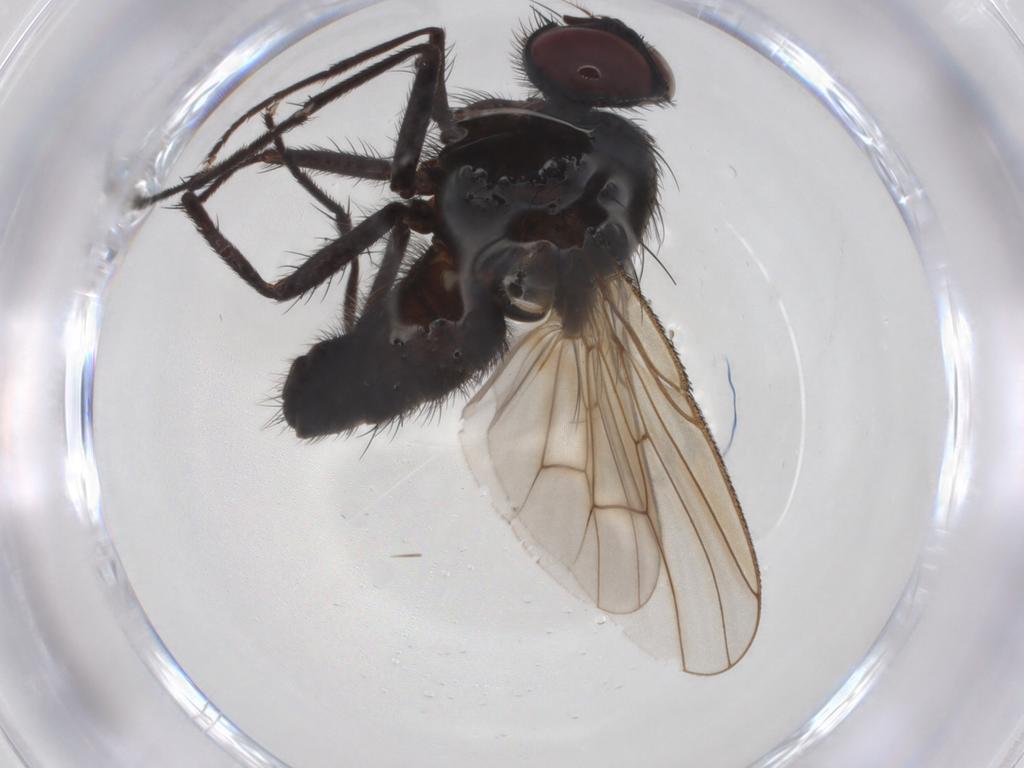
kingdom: Animalia
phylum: Arthropoda
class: Insecta
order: Diptera
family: Muscidae
